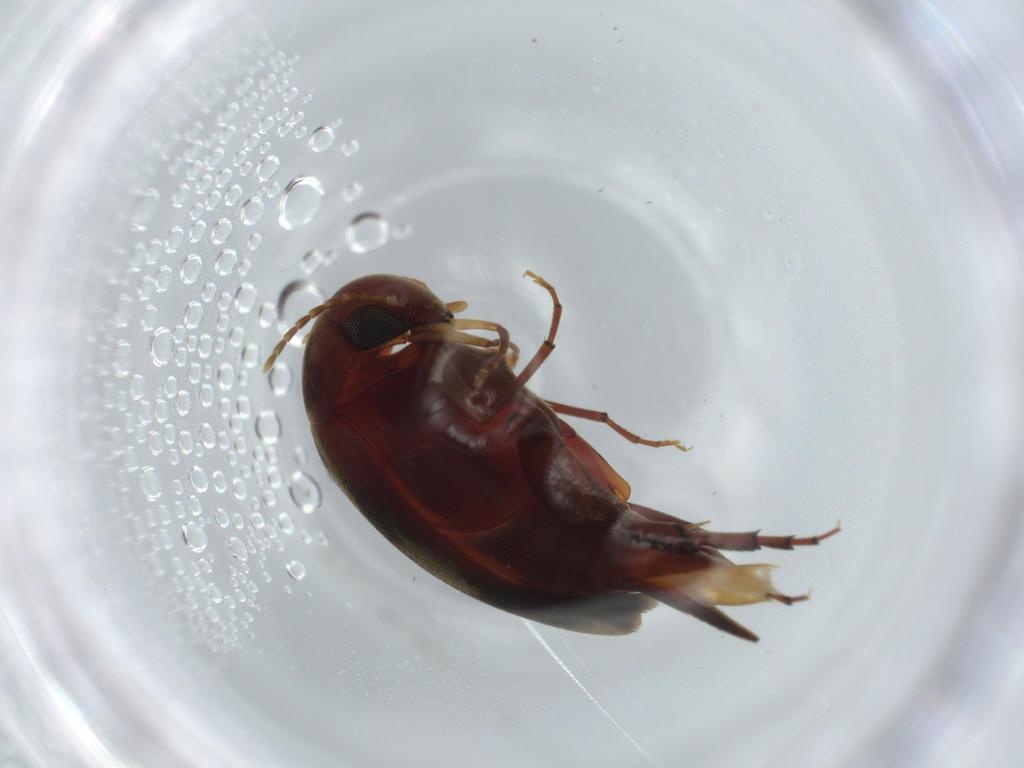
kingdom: Animalia
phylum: Arthropoda
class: Insecta
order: Coleoptera
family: Mordellidae
